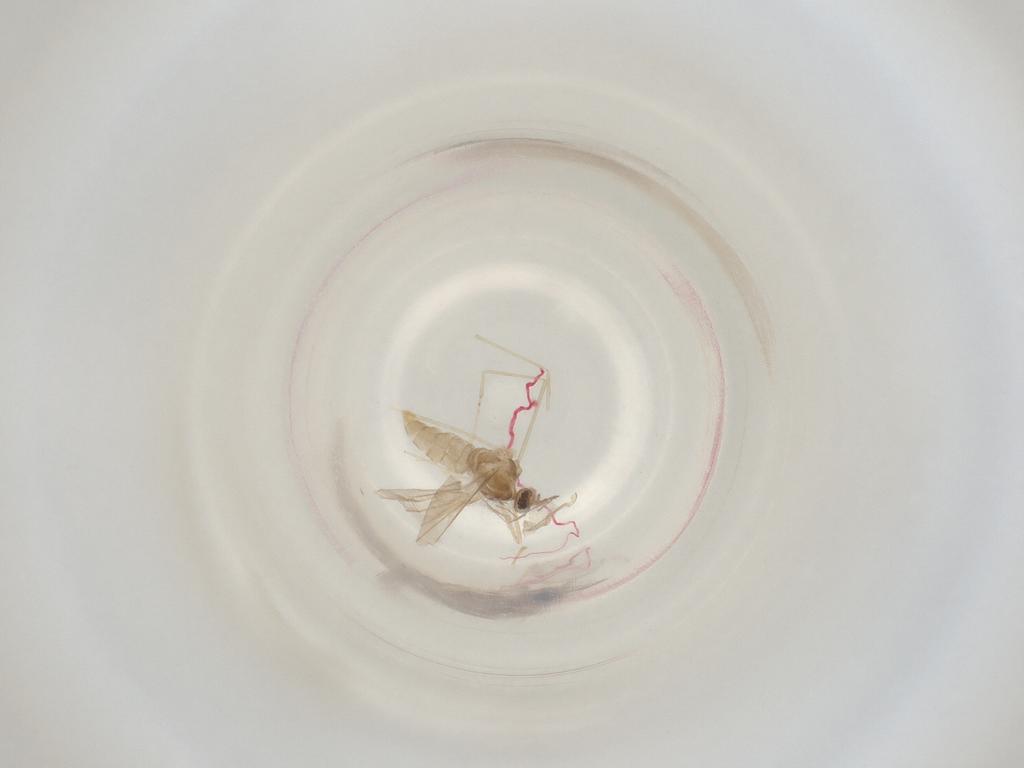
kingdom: Animalia
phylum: Arthropoda
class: Insecta
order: Diptera
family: Cecidomyiidae
